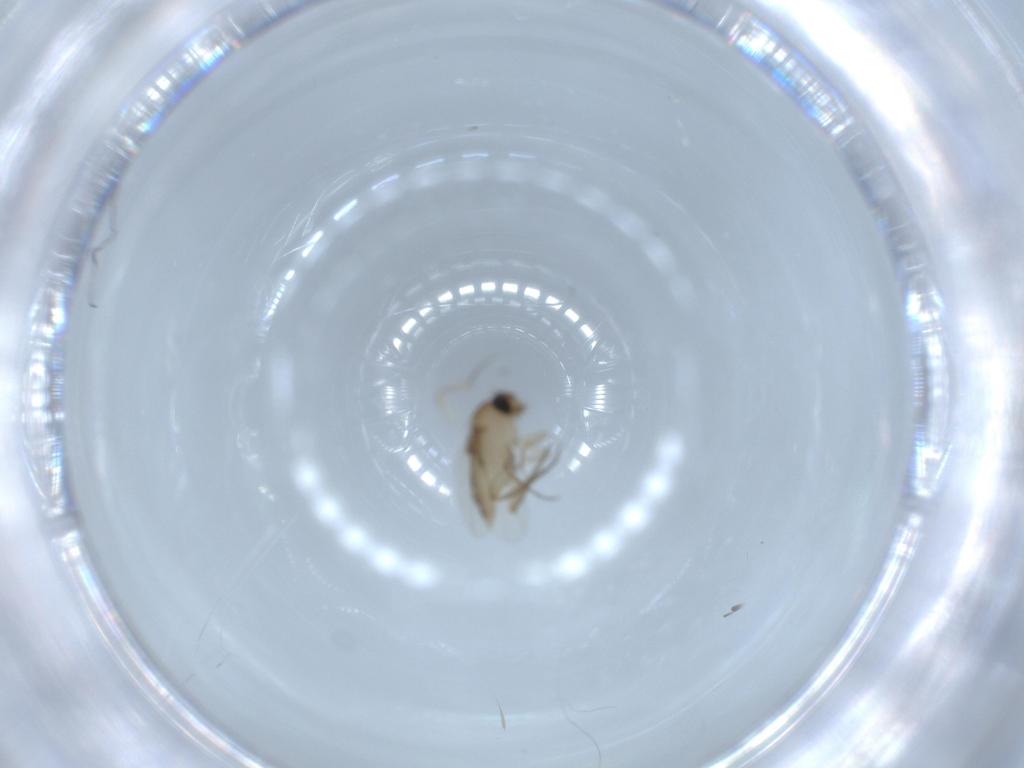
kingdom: Animalia
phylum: Arthropoda
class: Insecta
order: Diptera
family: Phoridae
